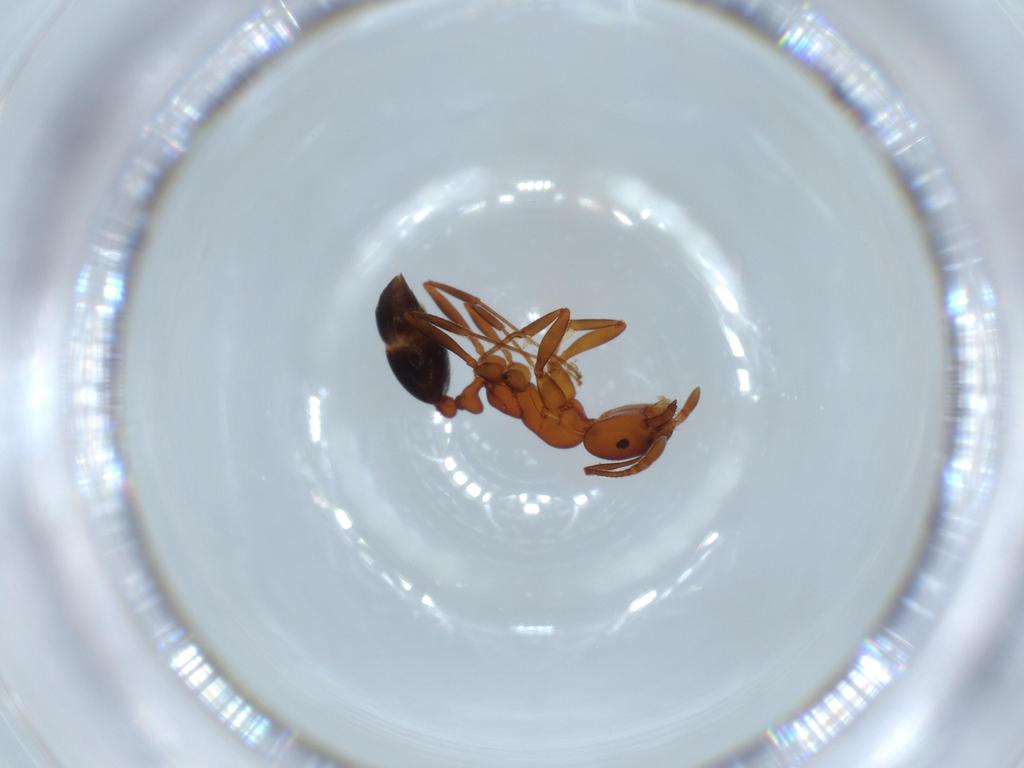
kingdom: Animalia
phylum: Arthropoda
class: Insecta
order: Hymenoptera
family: Formicidae
